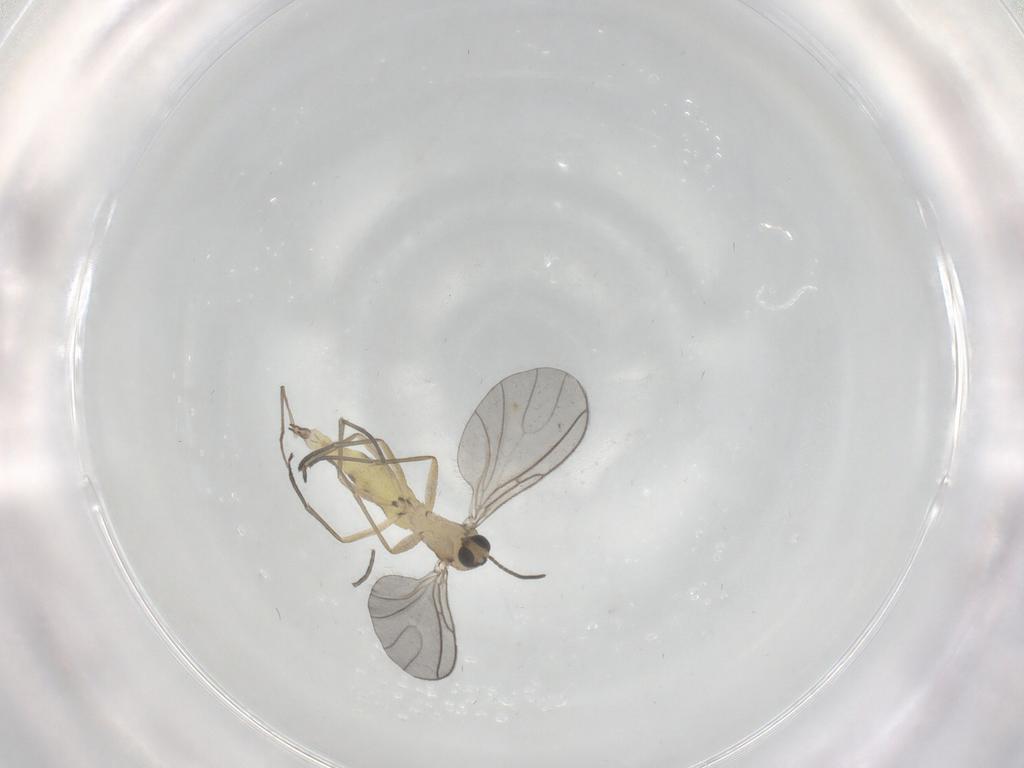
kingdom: Animalia
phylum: Arthropoda
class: Insecta
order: Diptera
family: Sciaridae
